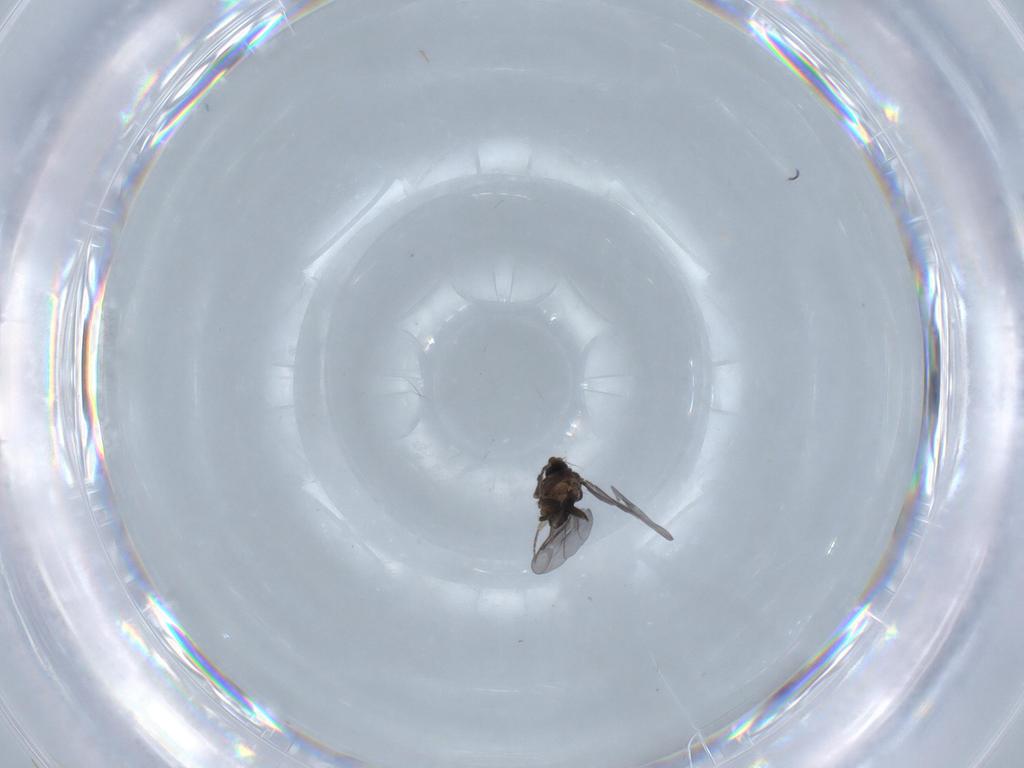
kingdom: Animalia
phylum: Arthropoda
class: Insecta
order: Diptera
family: Phoridae
